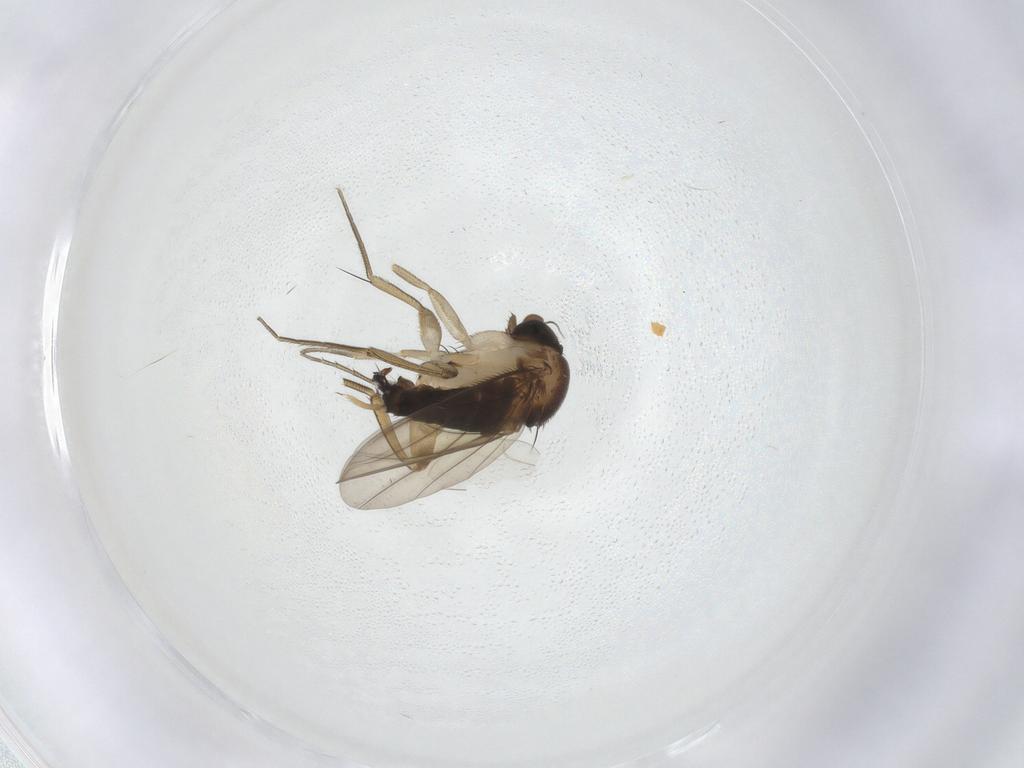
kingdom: Animalia
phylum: Arthropoda
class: Insecta
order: Diptera
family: Phoridae
